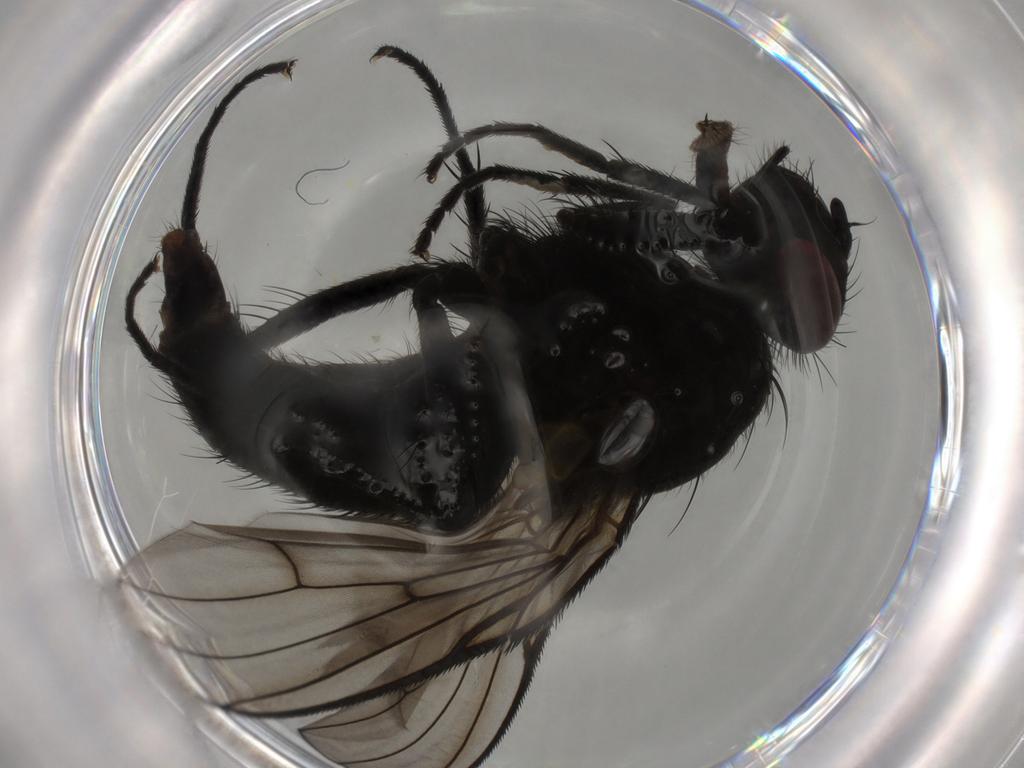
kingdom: Animalia
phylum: Arthropoda
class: Insecta
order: Diptera
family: Muscidae
